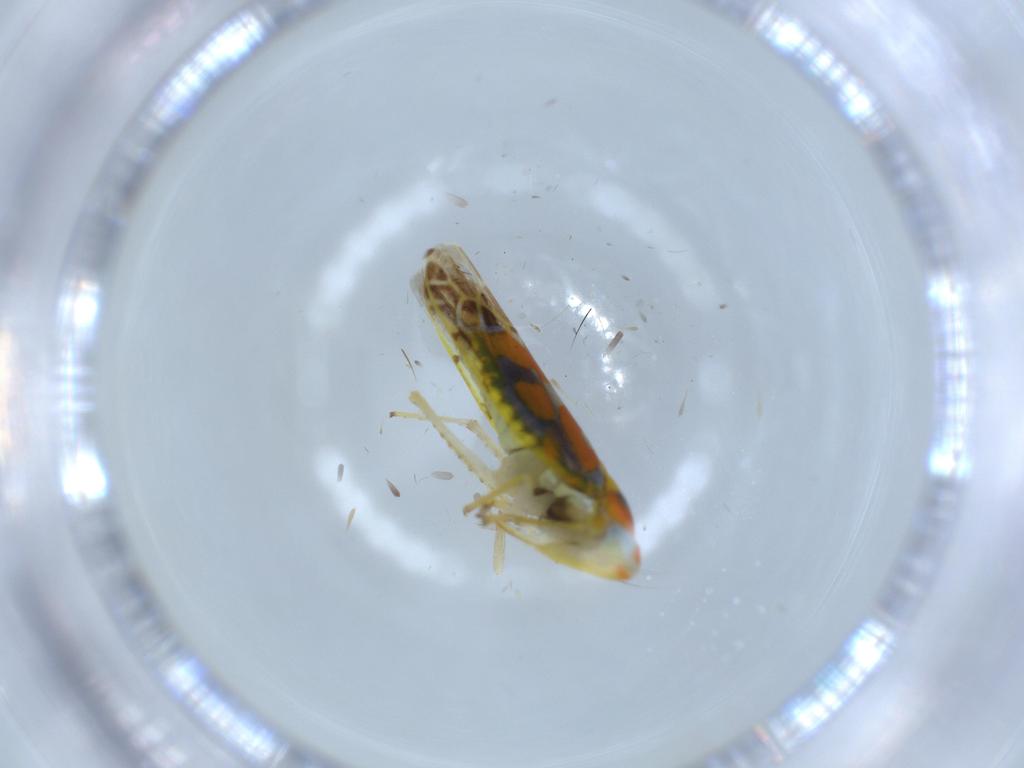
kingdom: Animalia
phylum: Arthropoda
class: Insecta
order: Hemiptera
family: Cicadellidae
